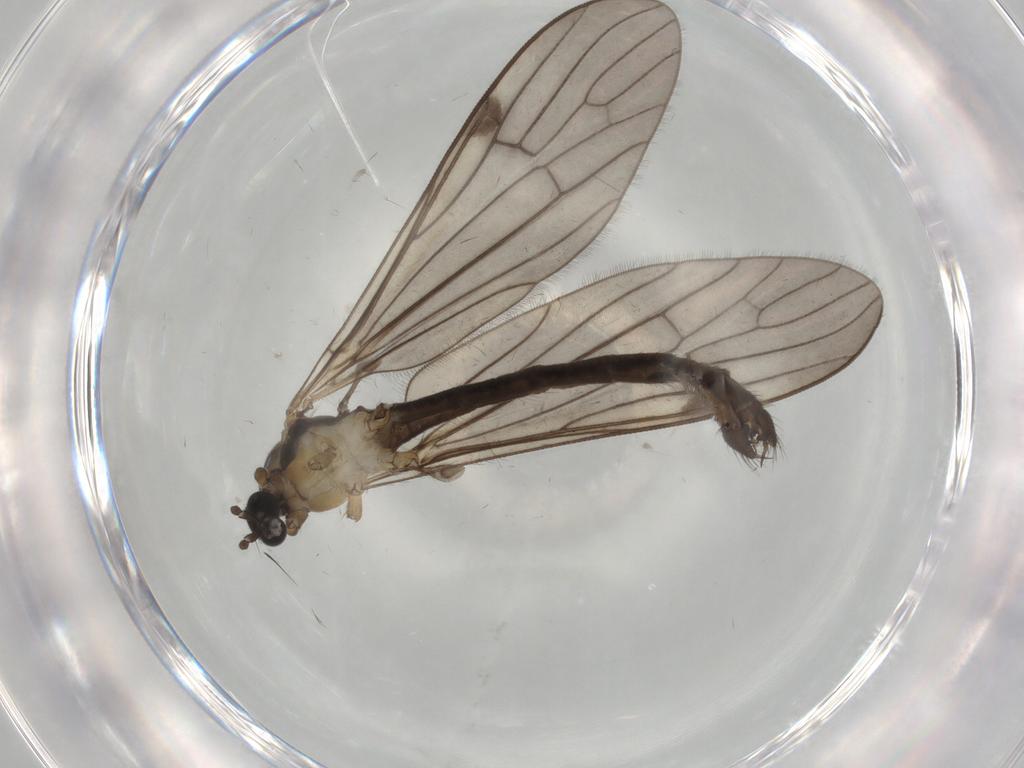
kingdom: Animalia
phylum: Arthropoda
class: Insecta
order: Diptera
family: Limoniidae
